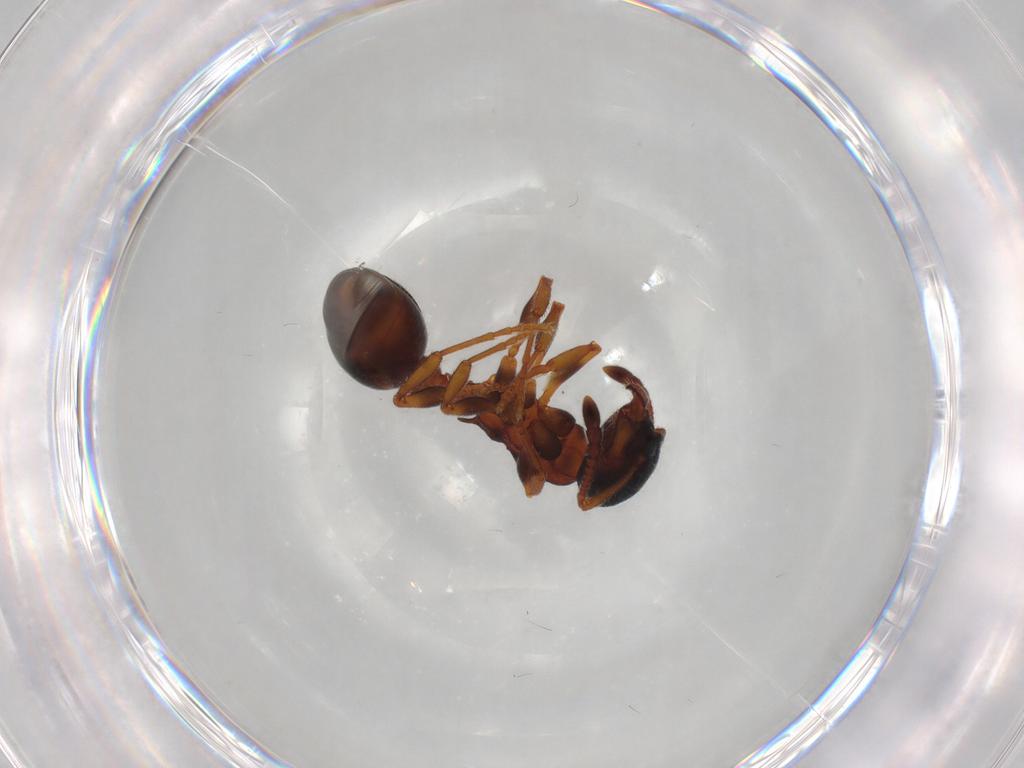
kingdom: Animalia
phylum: Arthropoda
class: Insecta
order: Hymenoptera
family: Formicidae
